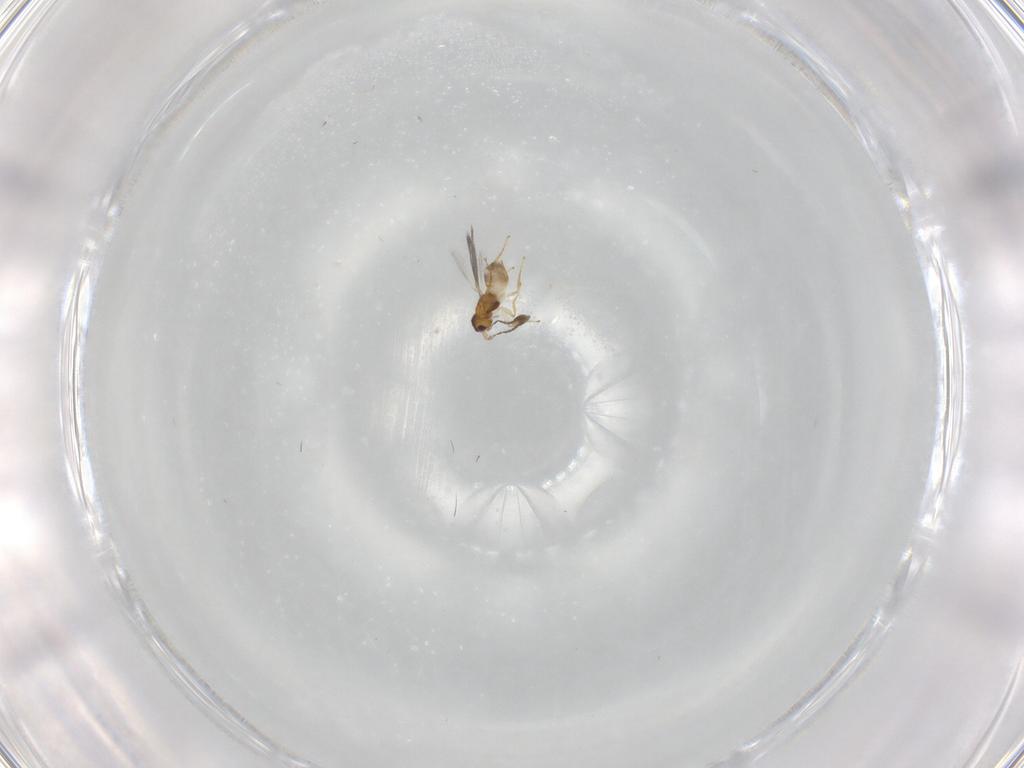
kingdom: Animalia
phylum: Arthropoda
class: Insecta
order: Hymenoptera
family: Mymaridae
